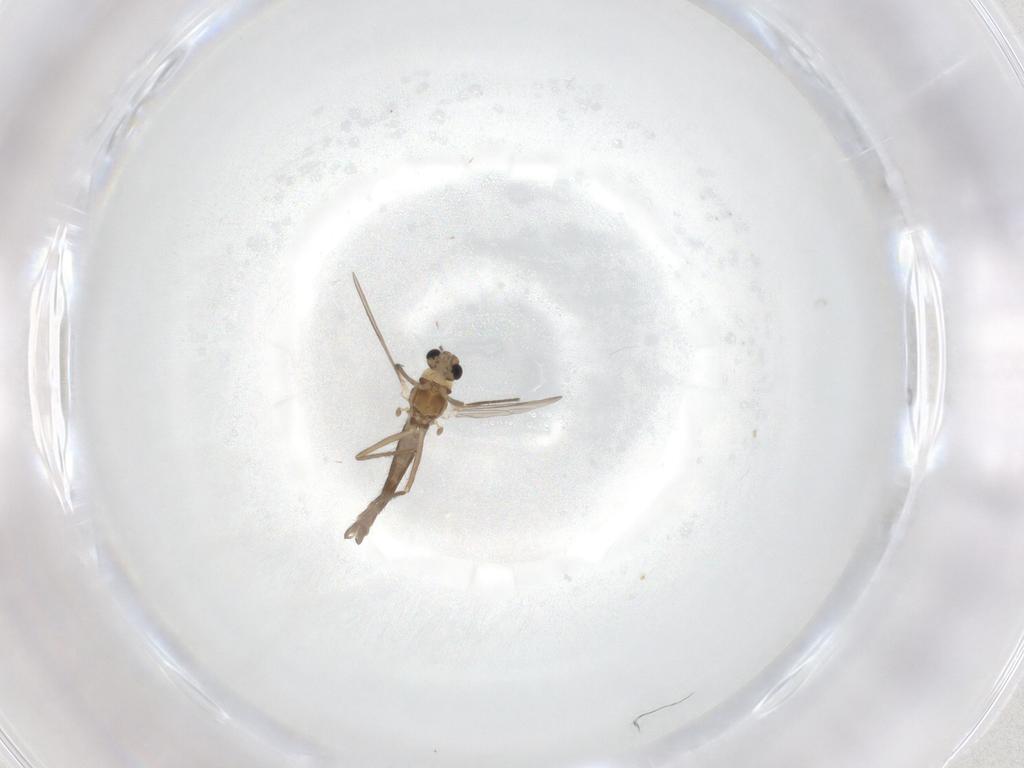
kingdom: Animalia
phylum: Arthropoda
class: Insecta
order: Diptera
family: Chironomidae
